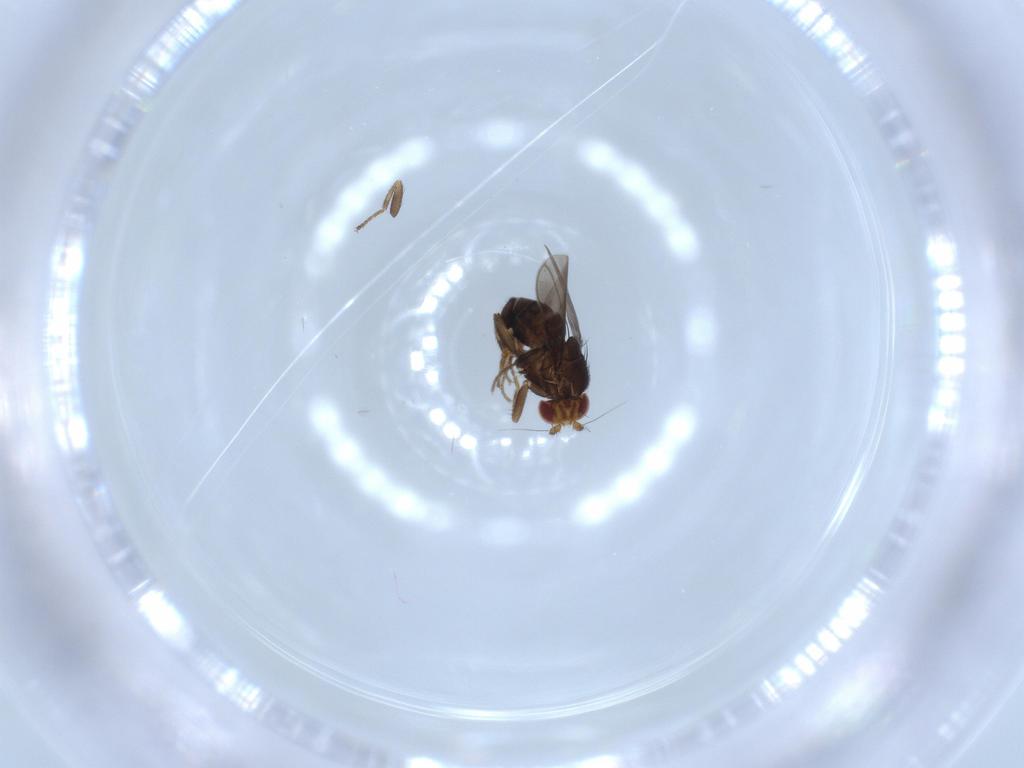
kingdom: Animalia
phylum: Arthropoda
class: Insecta
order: Diptera
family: Sphaeroceridae
